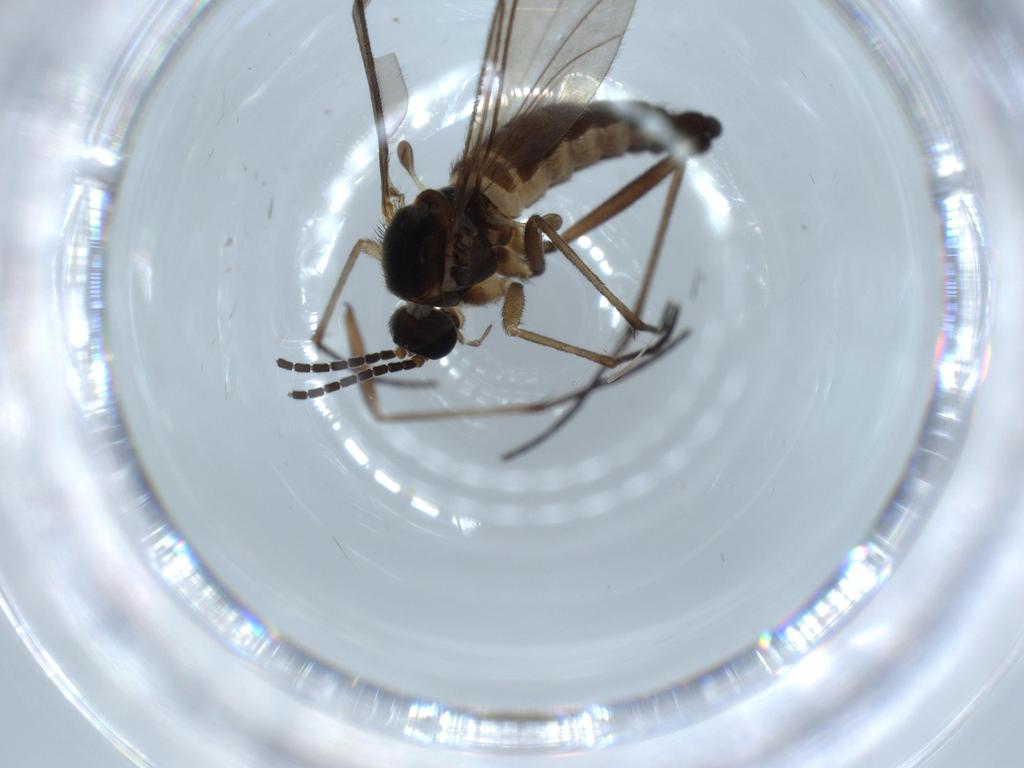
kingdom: Animalia
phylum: Arthropoda
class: Insecta
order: Diptera
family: Sciaridae
